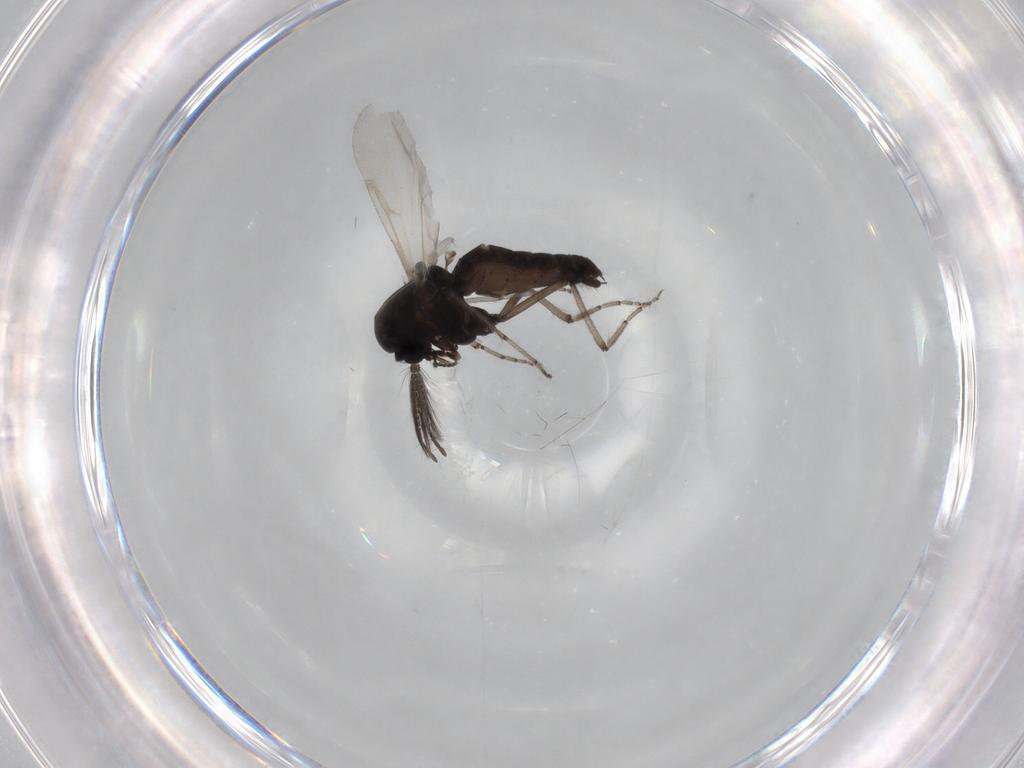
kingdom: Animalia
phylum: Arthropoda
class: Insecta
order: Diptera
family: Ceratopogonidae
